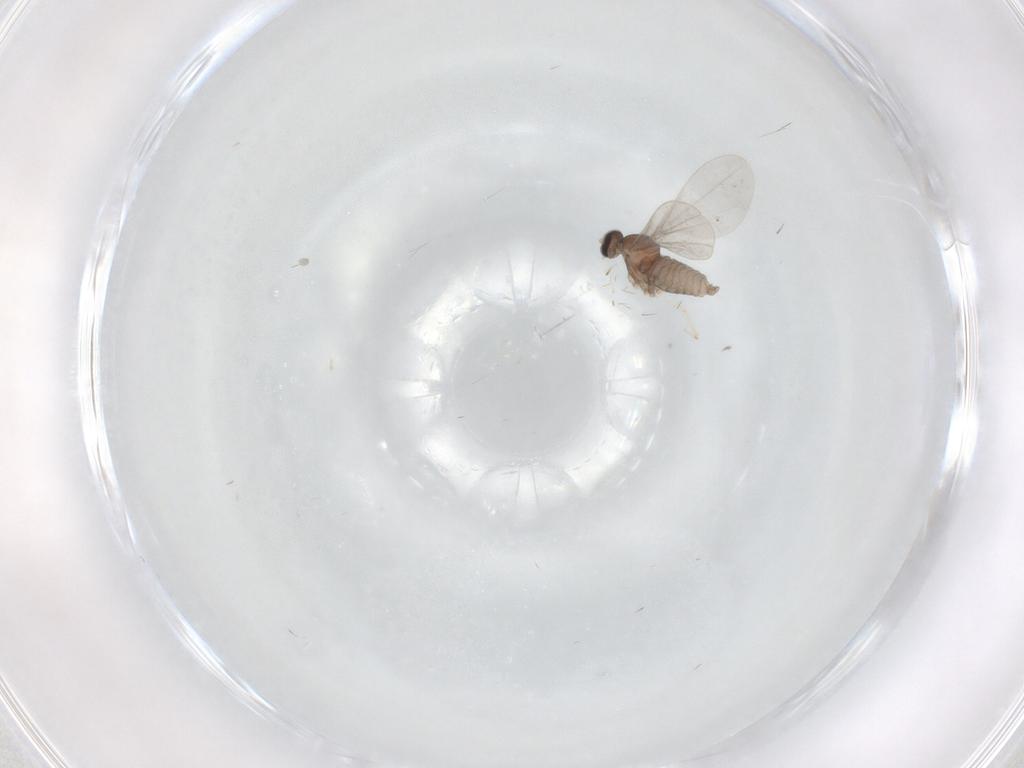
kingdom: Animalia
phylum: Arthropoda
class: Insecta
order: Diptera
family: Cecidomyiidae
